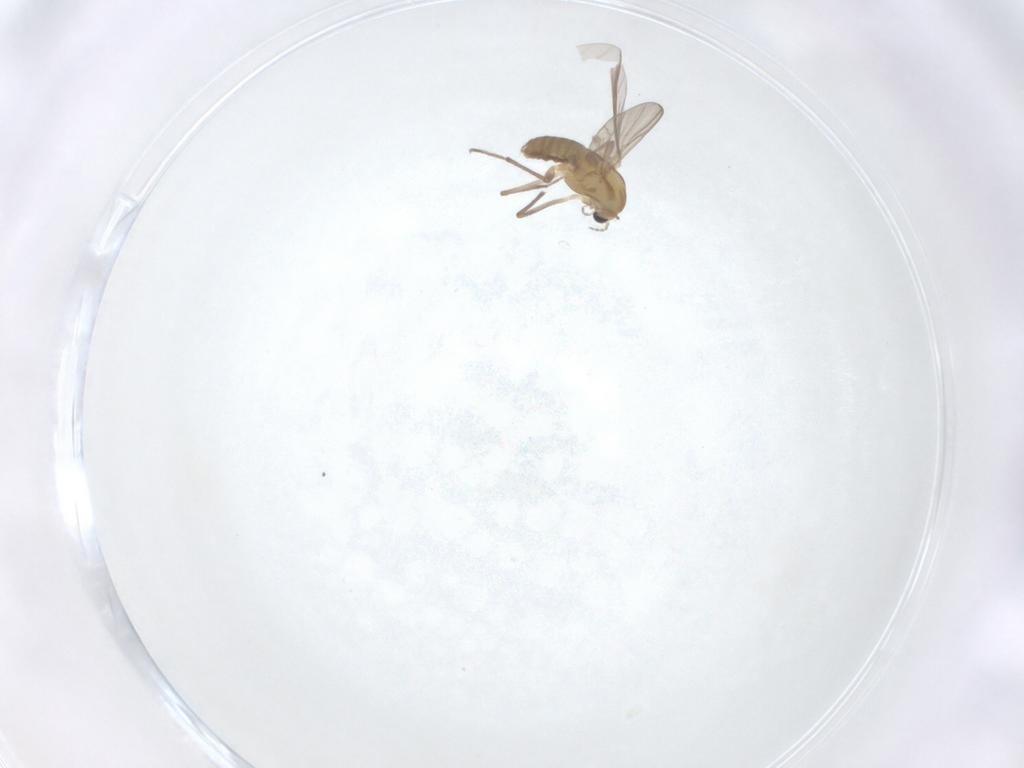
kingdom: Animalia
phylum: Arthropoda
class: Insecta
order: Diptera
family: Chironomidae
